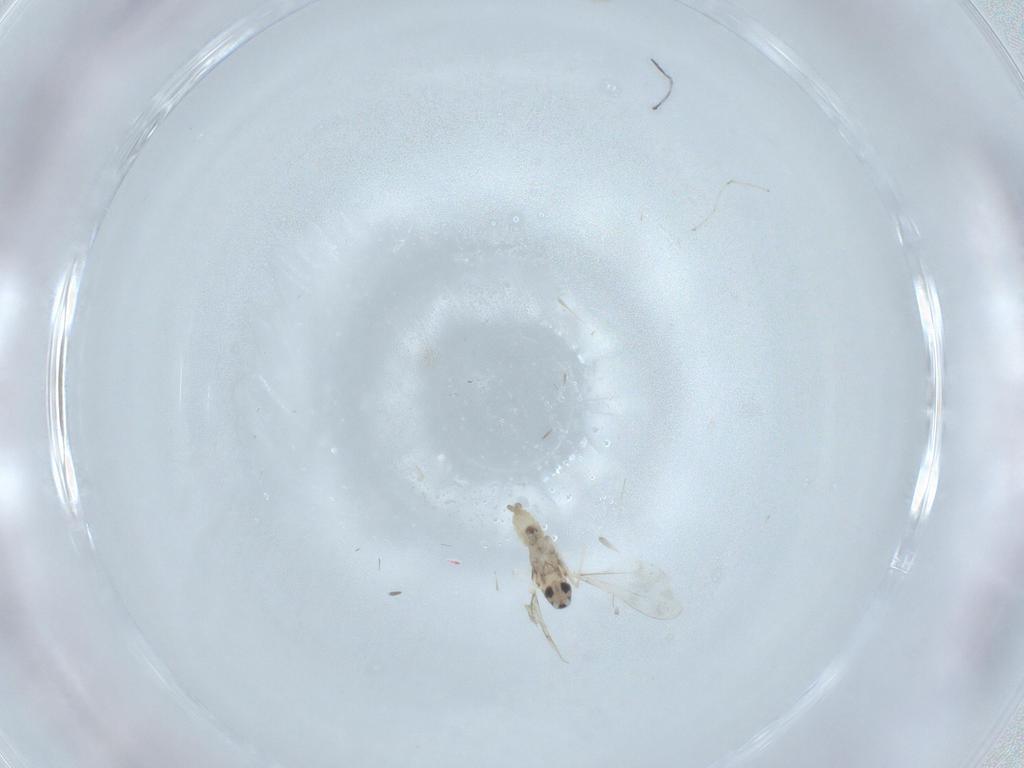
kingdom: Animalia
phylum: Arthropoda
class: Insecta
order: Diptera
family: Cecidomyiidae
